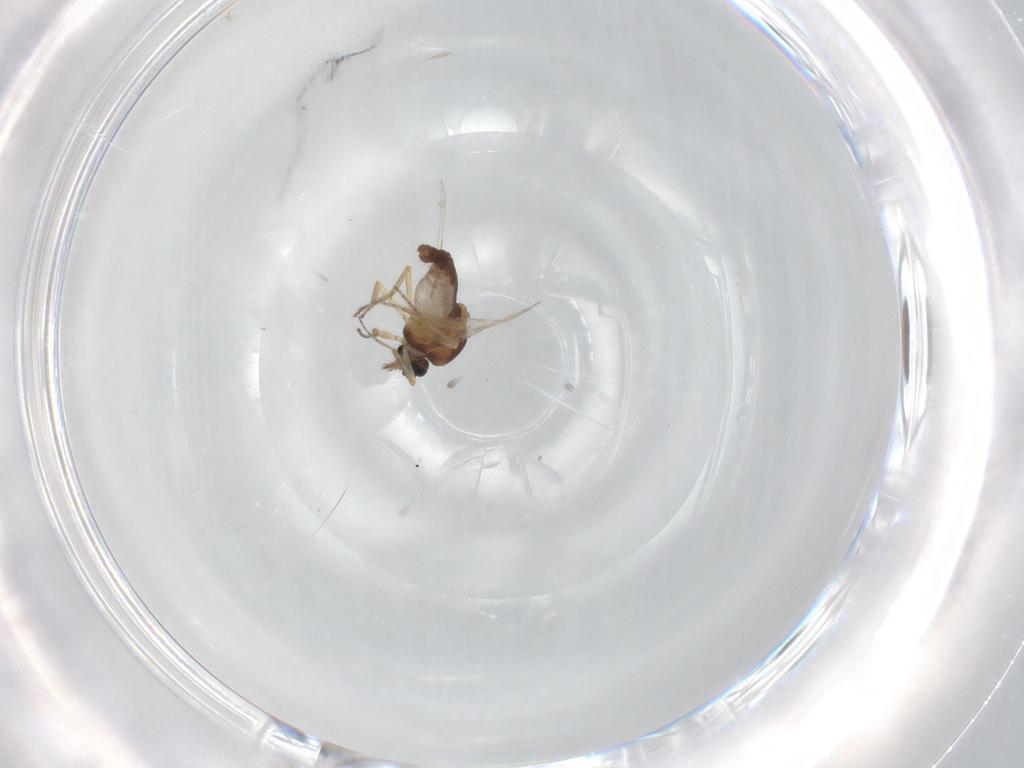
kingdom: Animalia
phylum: Arthropoda
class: Insecta
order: Diptera
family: Ceratopogonidae
